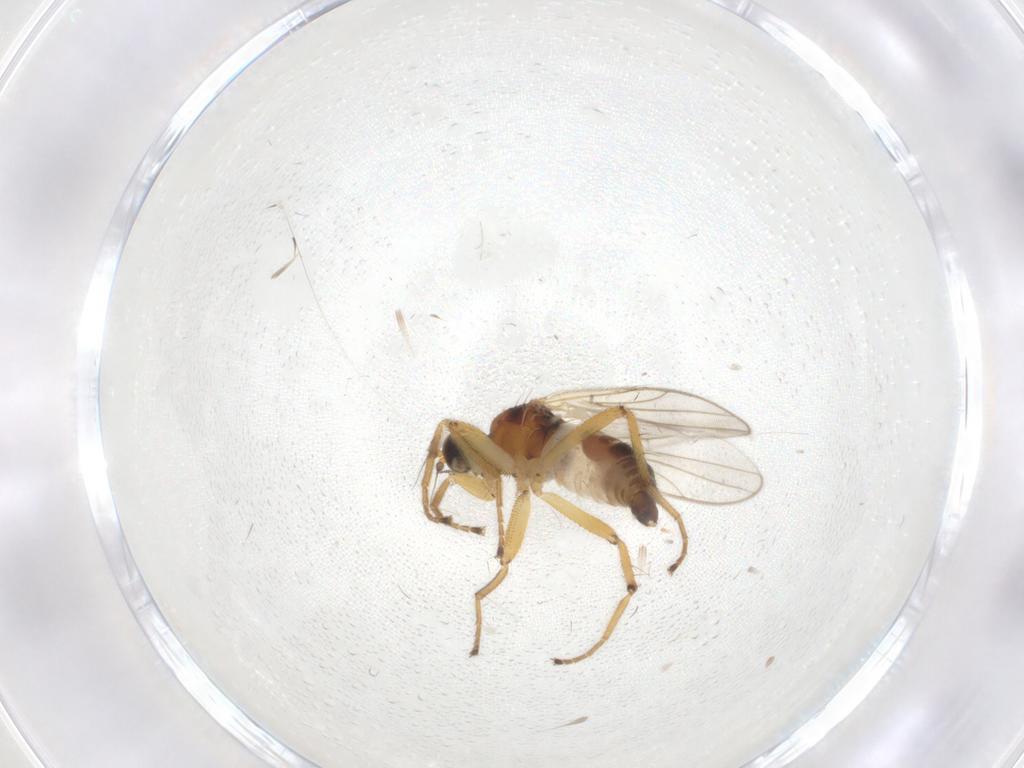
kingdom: Animalia
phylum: Arthropoda
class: Insecta
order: Diptera
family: Hybotidae
